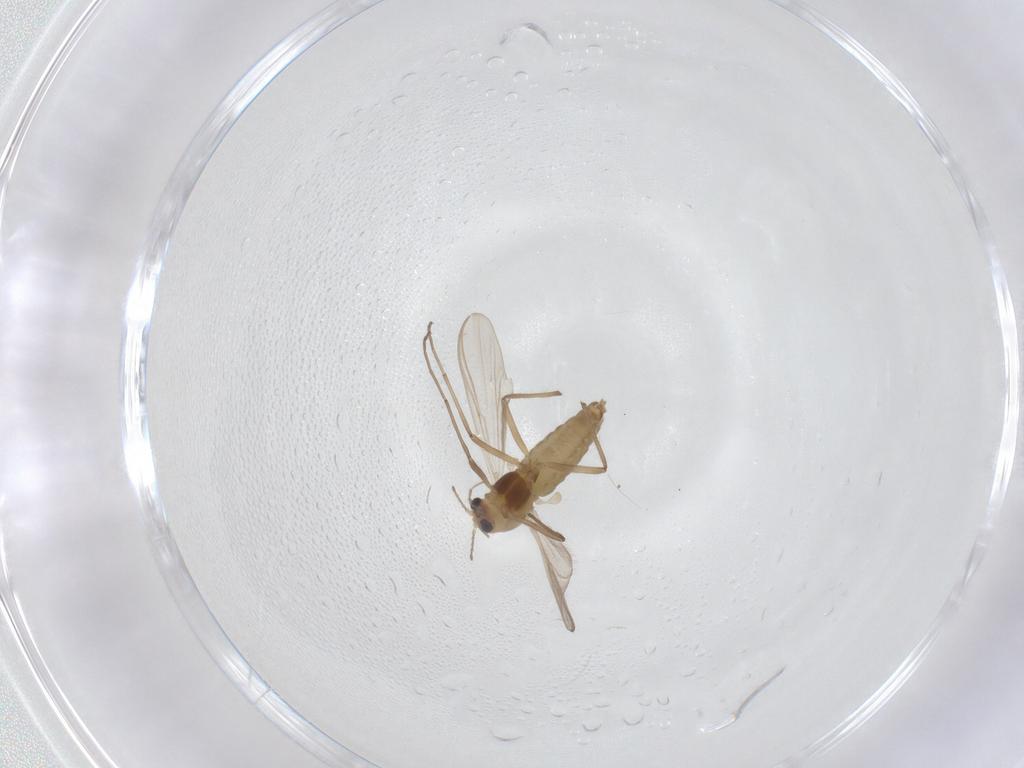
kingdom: Animalia
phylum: Arthropoda
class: Insecta
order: Diptera
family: Chironomidae
